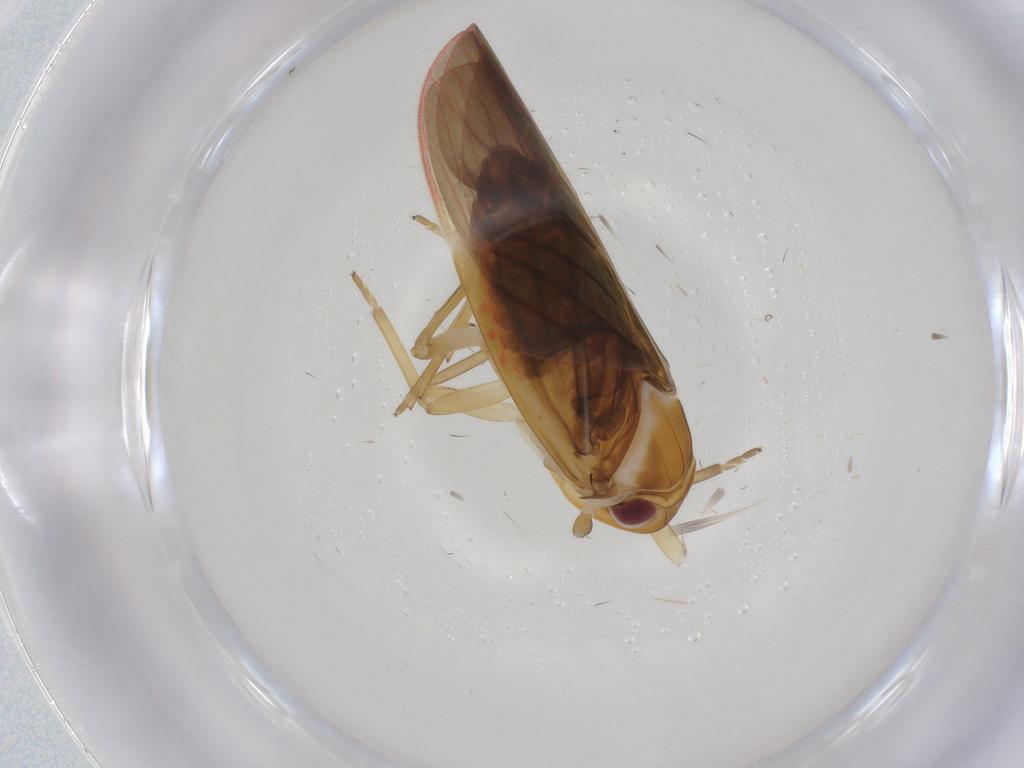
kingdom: Animalia
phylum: Arthropoda
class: Insecta
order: Hemiptera
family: Achilidae
